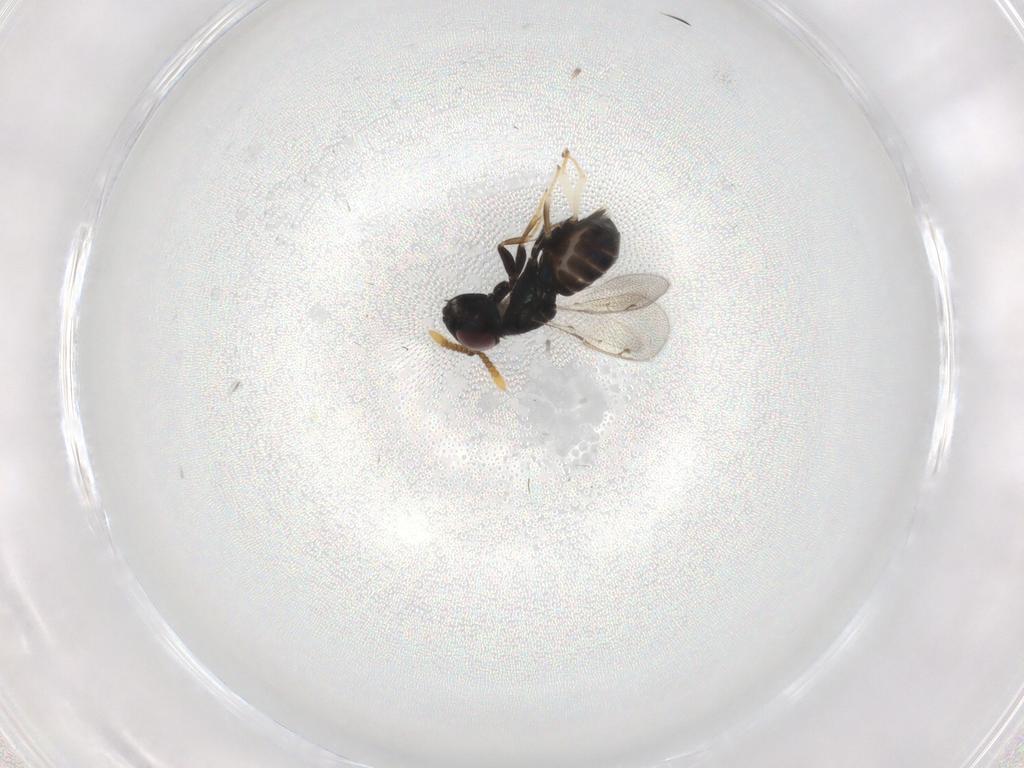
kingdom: Animalia
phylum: Arthropoda
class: Insecta
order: Hymenoptera
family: Pirenidae
